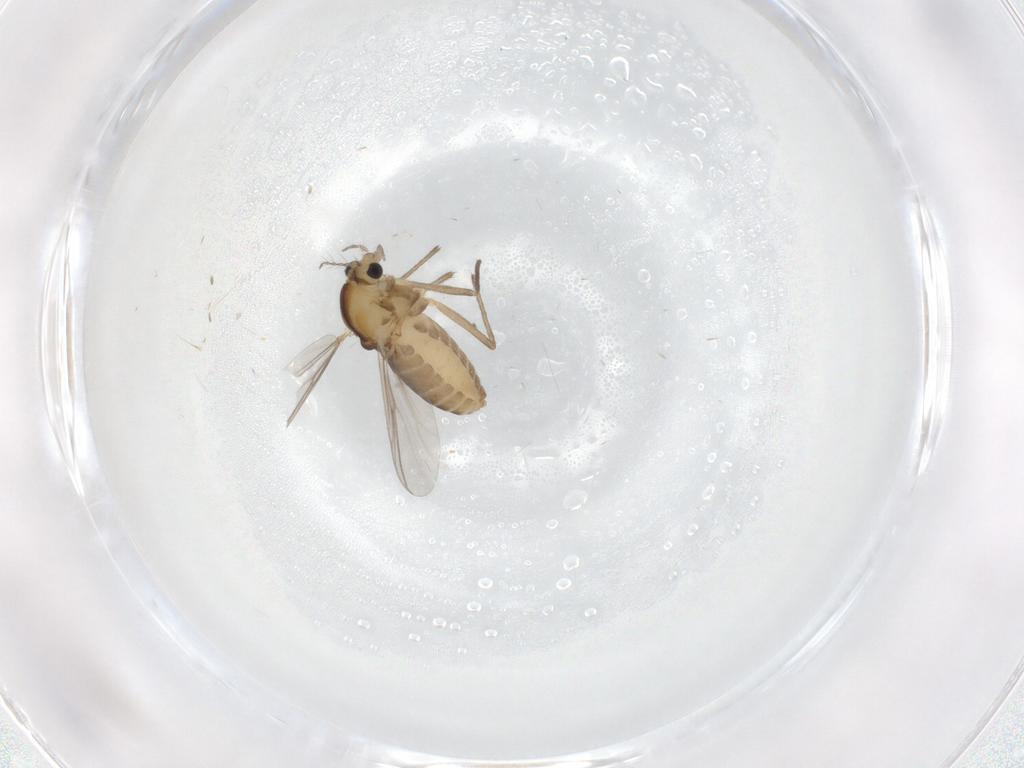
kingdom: Animalia
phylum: Arthropoda
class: Insecta
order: Diptera
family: Chironomidae
